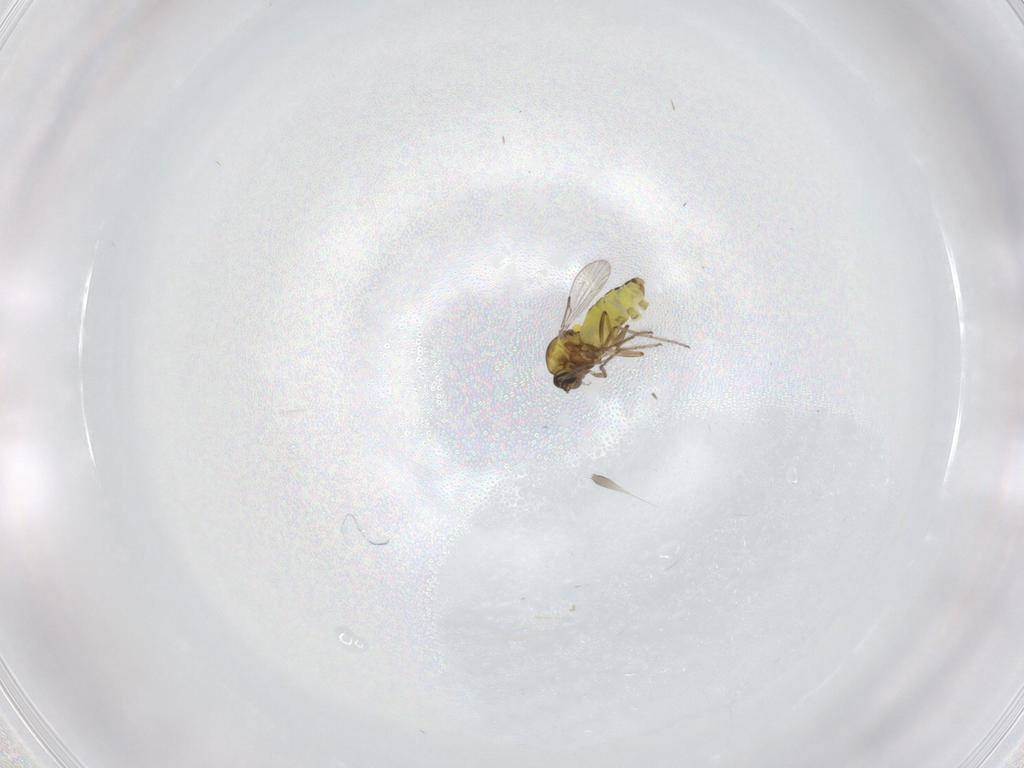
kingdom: Animalia
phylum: Arthropoda
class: Insecta
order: Diptera
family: Ceratopogonidae
